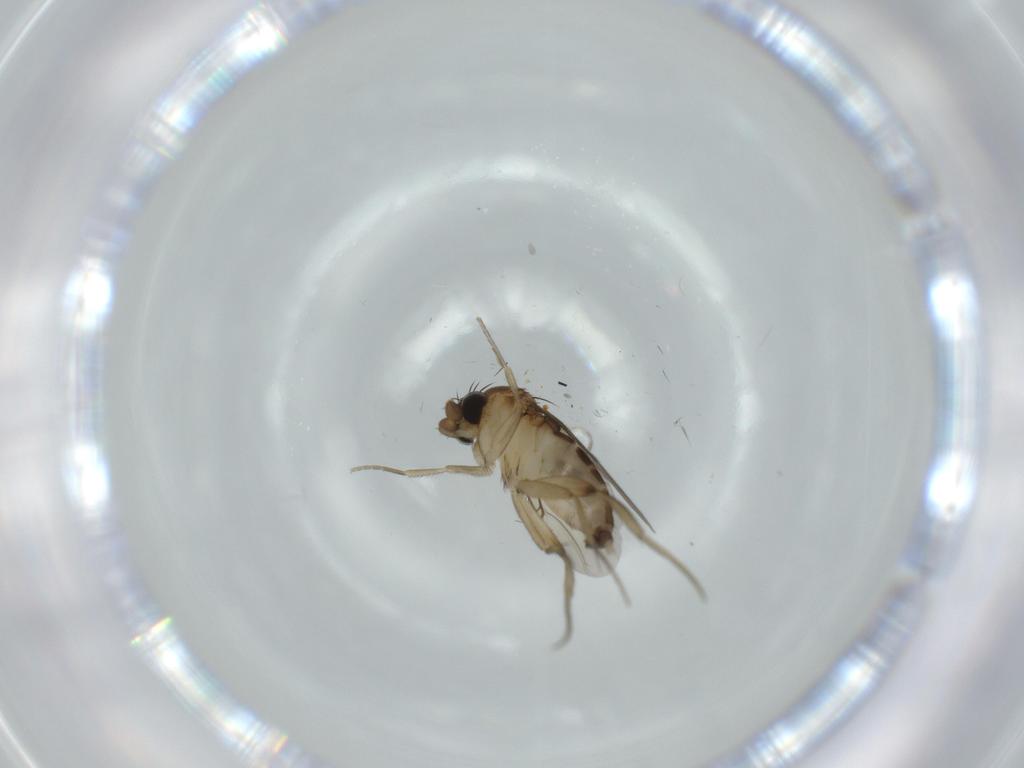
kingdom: Animalia
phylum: Arthropoda
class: Insecta
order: Diptera
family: Phoridae
